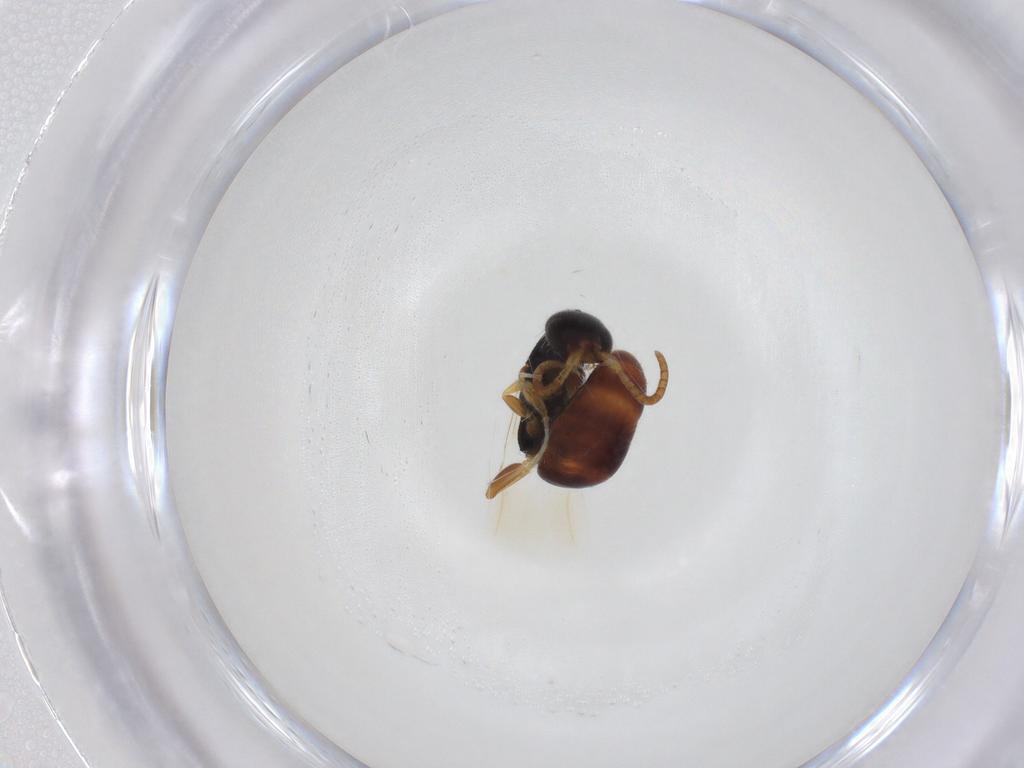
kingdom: Animalia
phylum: Arthropoda
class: Insecta
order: Hymenoptera
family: Bethylidae
